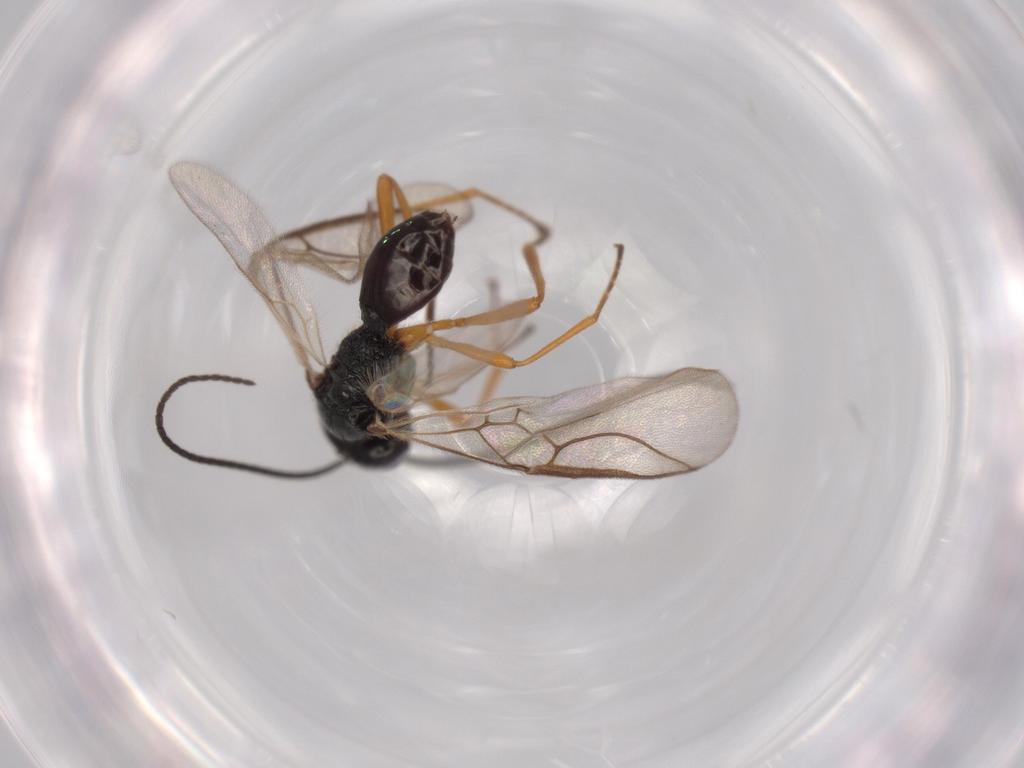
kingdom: Animalia
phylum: Arthropoda
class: Insecta
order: Hymenoptera
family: Braconidae
